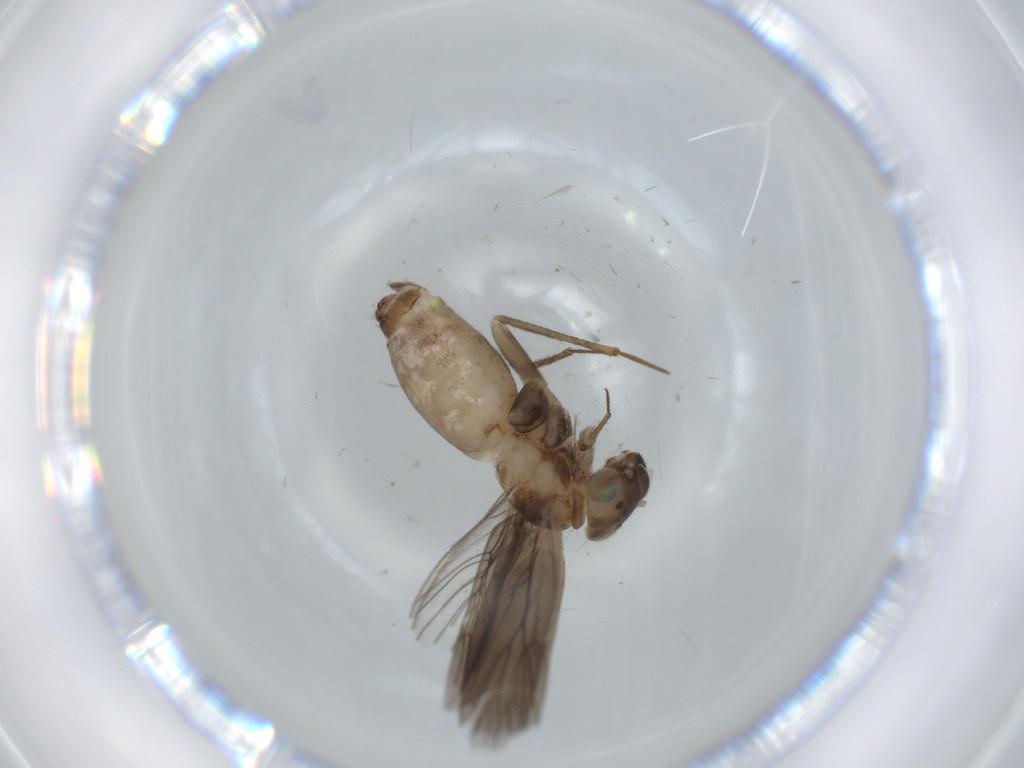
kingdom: Animalia
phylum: Arthropoda
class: Insecta
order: Psocodea
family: Lepidopsocidae
